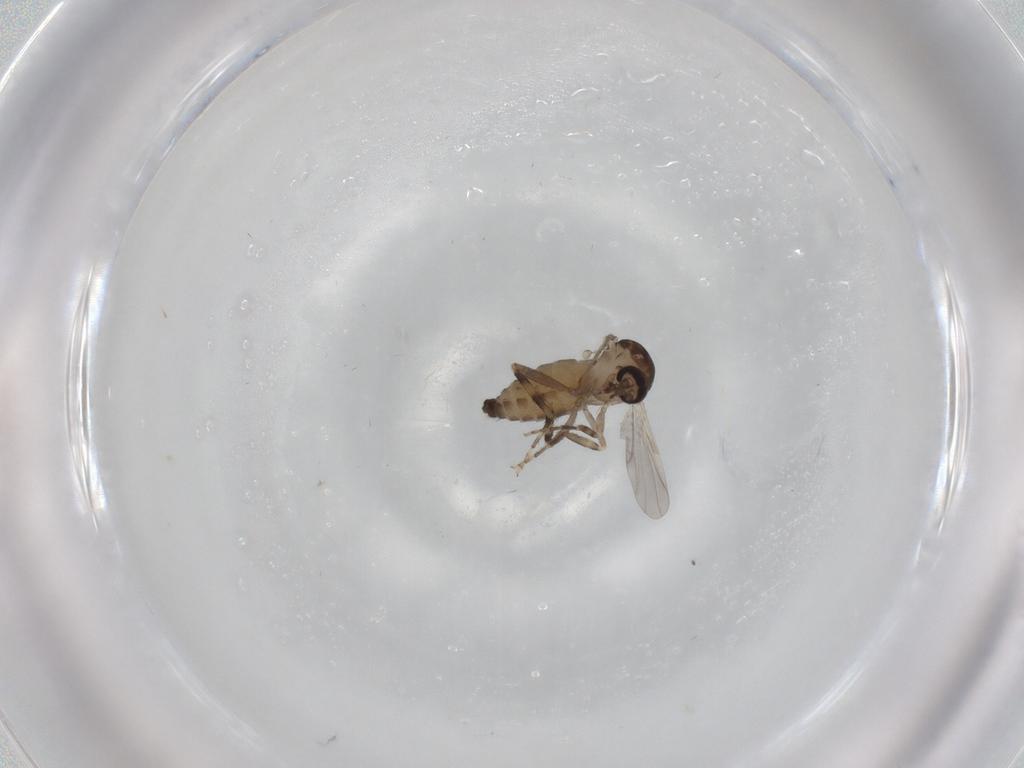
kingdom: Animalia
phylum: Arthropoda
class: Insecta
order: Diptera
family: Ceratopogonidae
